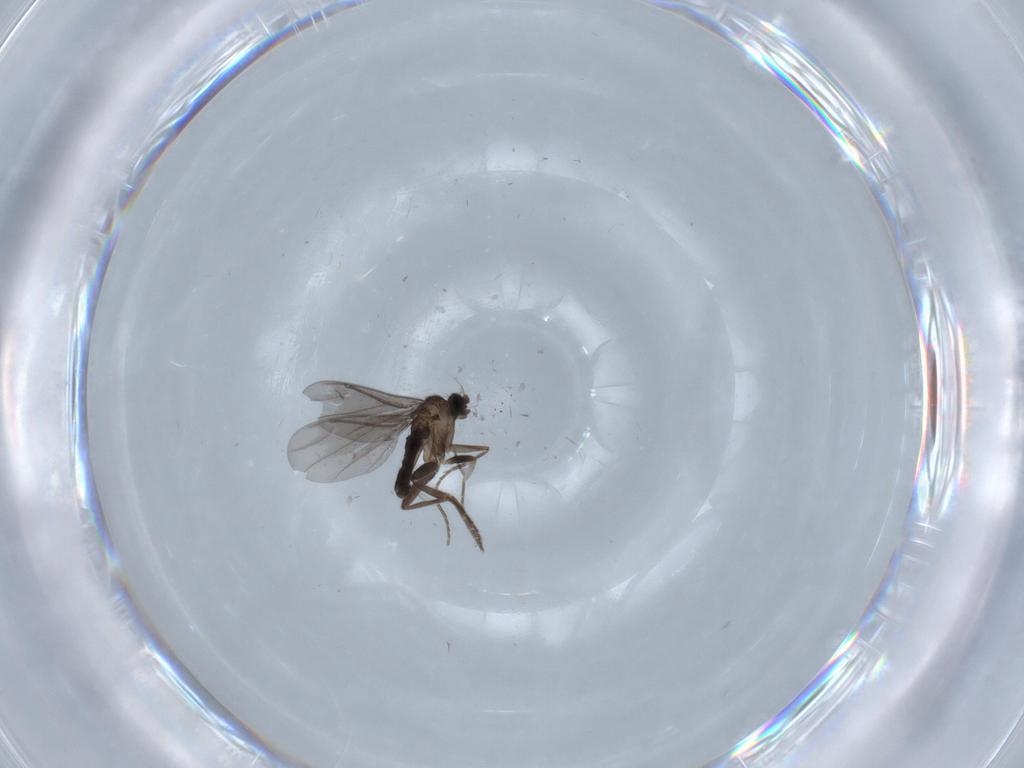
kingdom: Animalia
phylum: Arthropoda
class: Insecta
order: Diptera
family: Phoridae
